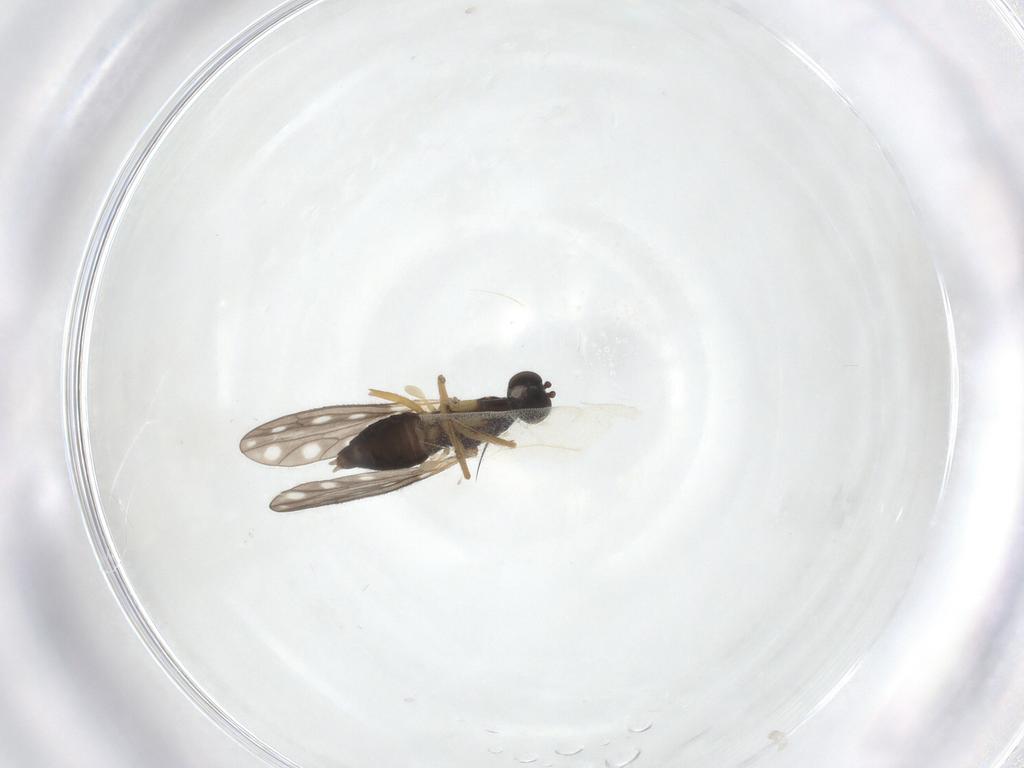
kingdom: Animalia
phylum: Arthropoda
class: Insecta
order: Diptera
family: Empididae
